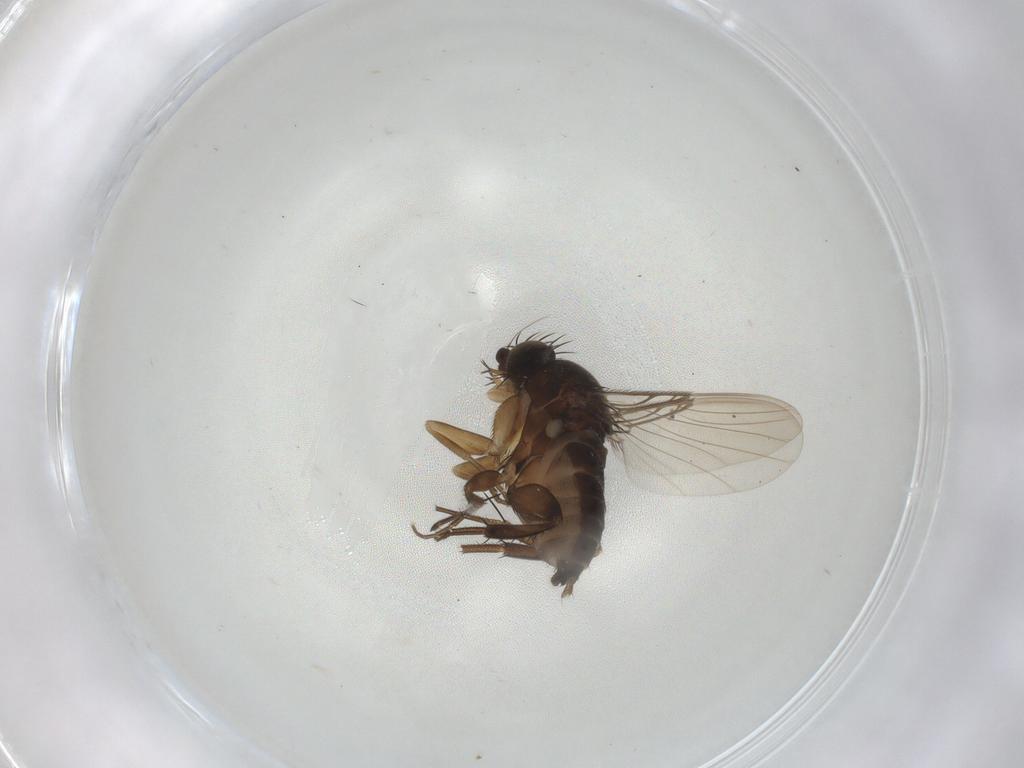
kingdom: Animalia
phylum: Arthropoda
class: Insecta
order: Diptera
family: Phoridae
